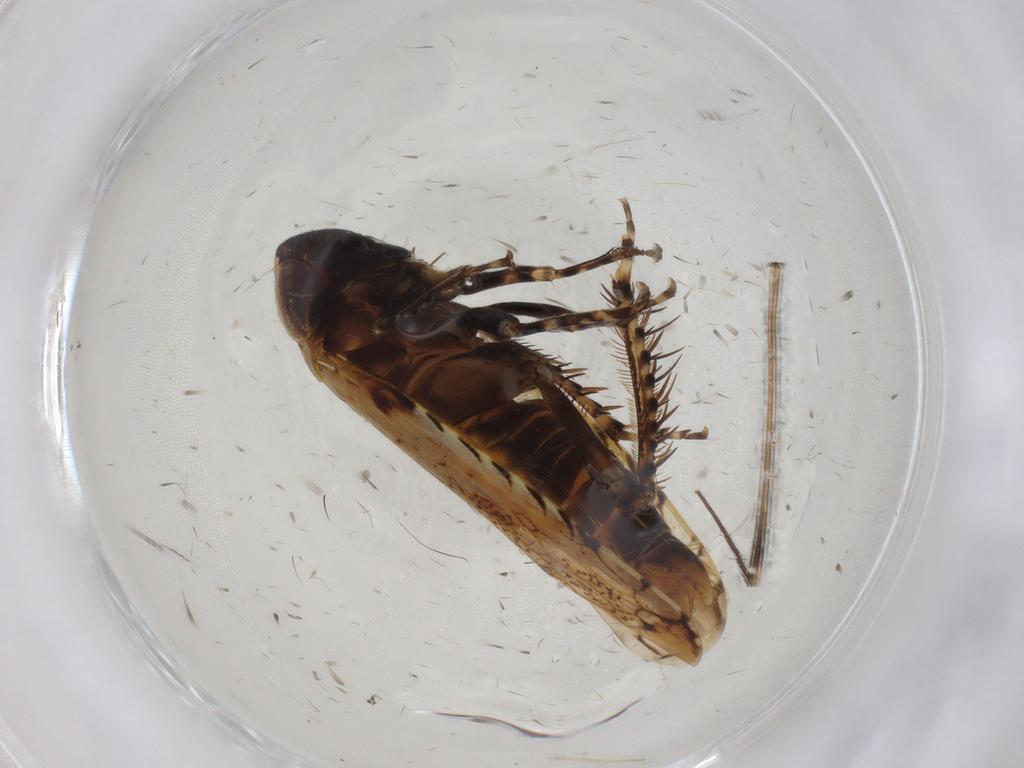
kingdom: Animalia
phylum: Arthropoda
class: Insecta
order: Hemiptera
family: Cicadellidae
